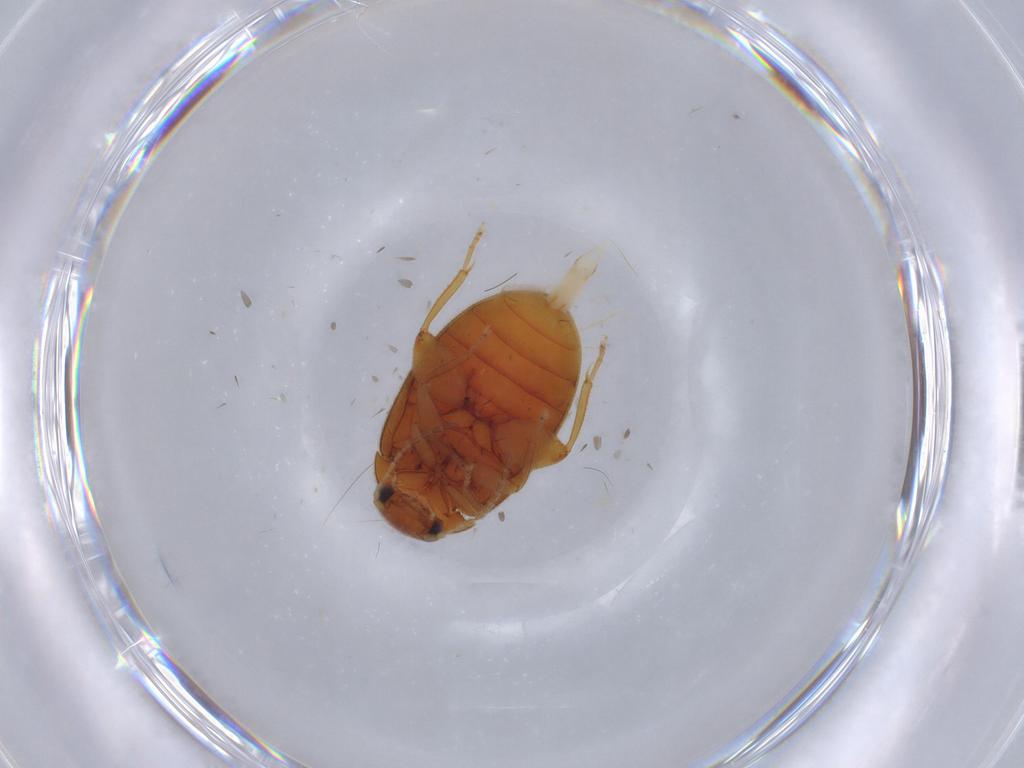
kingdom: Animalia
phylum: Arthropoda
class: Insecta
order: Coleoptera
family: Scirtidae
